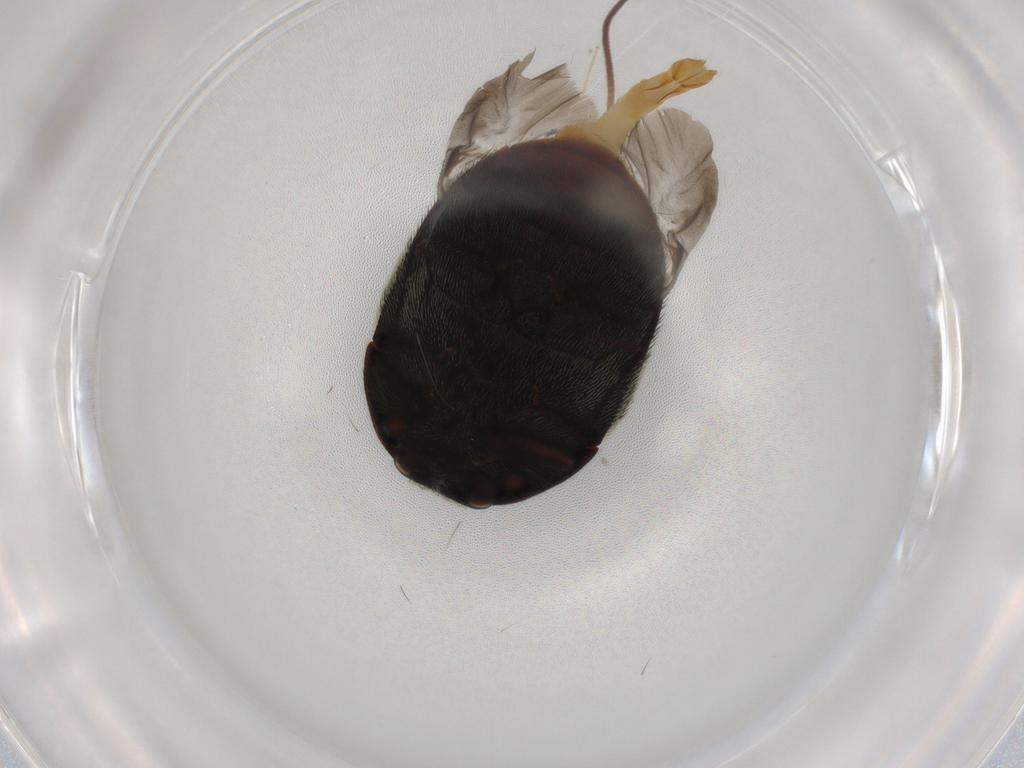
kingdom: Animalia
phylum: Arthropoda
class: Insecta
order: Coleoptera
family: Dermestidae
